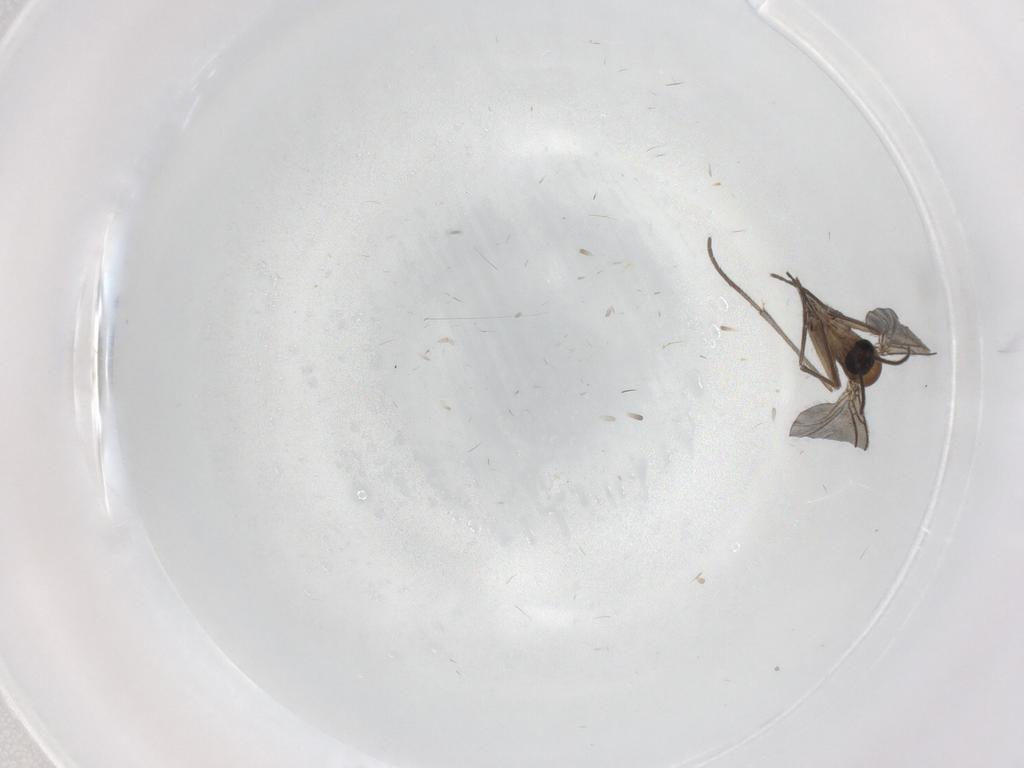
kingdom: Animalia
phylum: Arthropoda
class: Insecta
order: Diptera
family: Sciaridae
